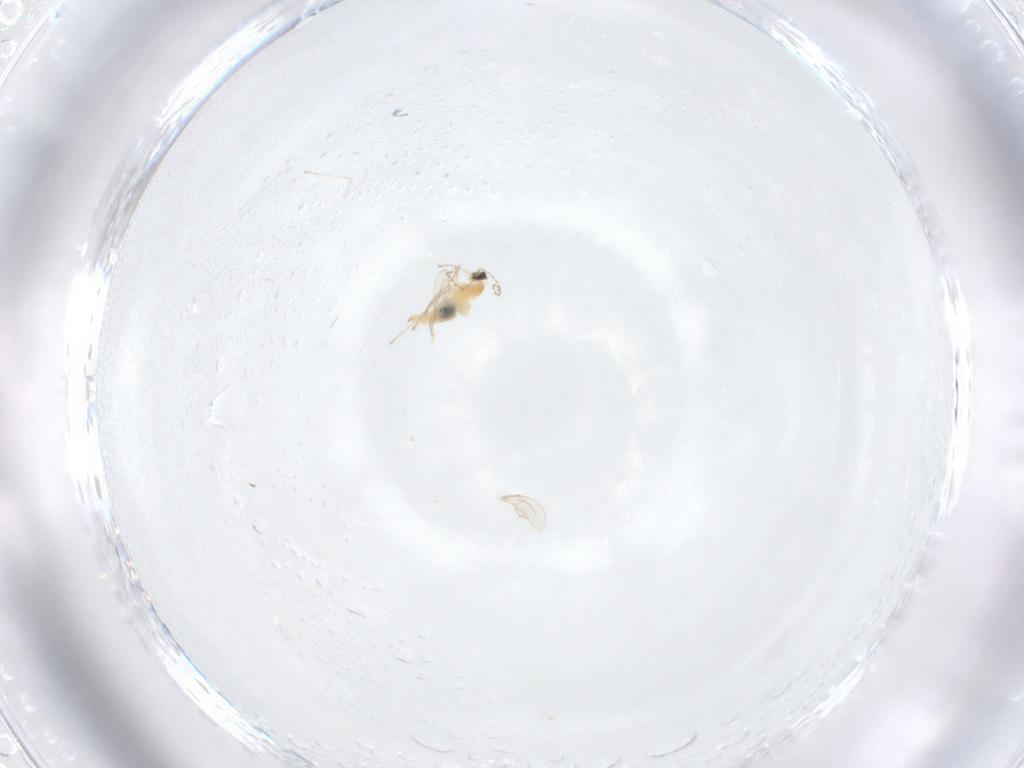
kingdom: Animalia
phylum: Arthropoda
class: Insecta
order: Diptera
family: Cecidomyiidae
